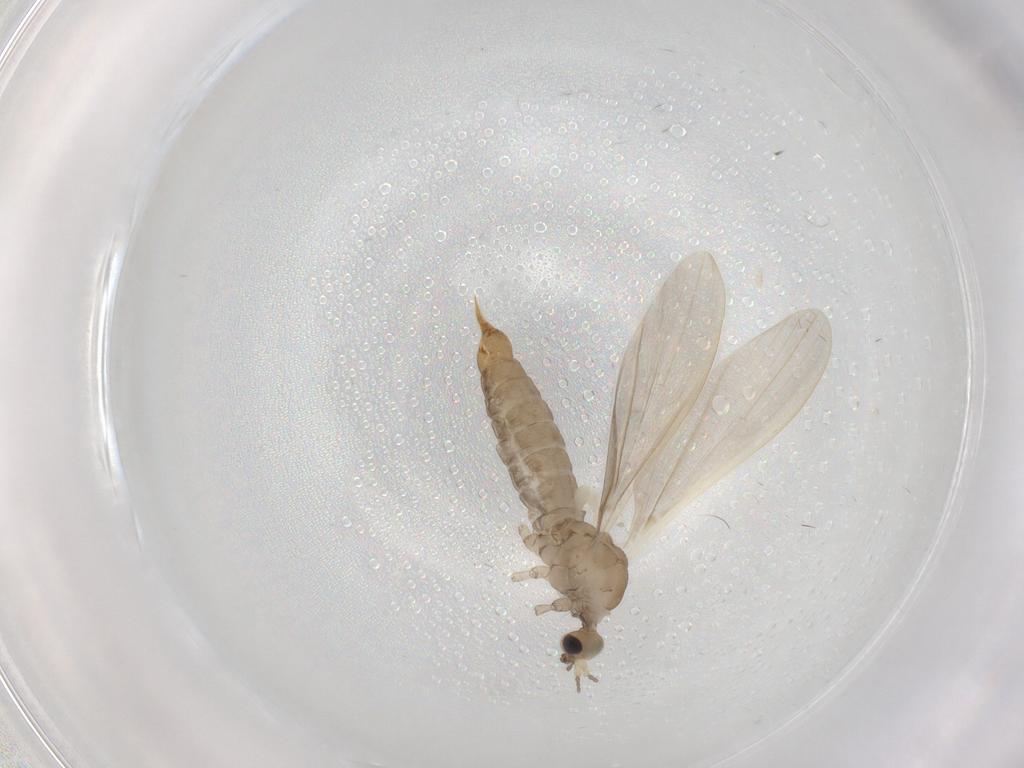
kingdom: Animalia
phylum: Arthropoda
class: Insecta
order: Diptera
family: Limoniidae
